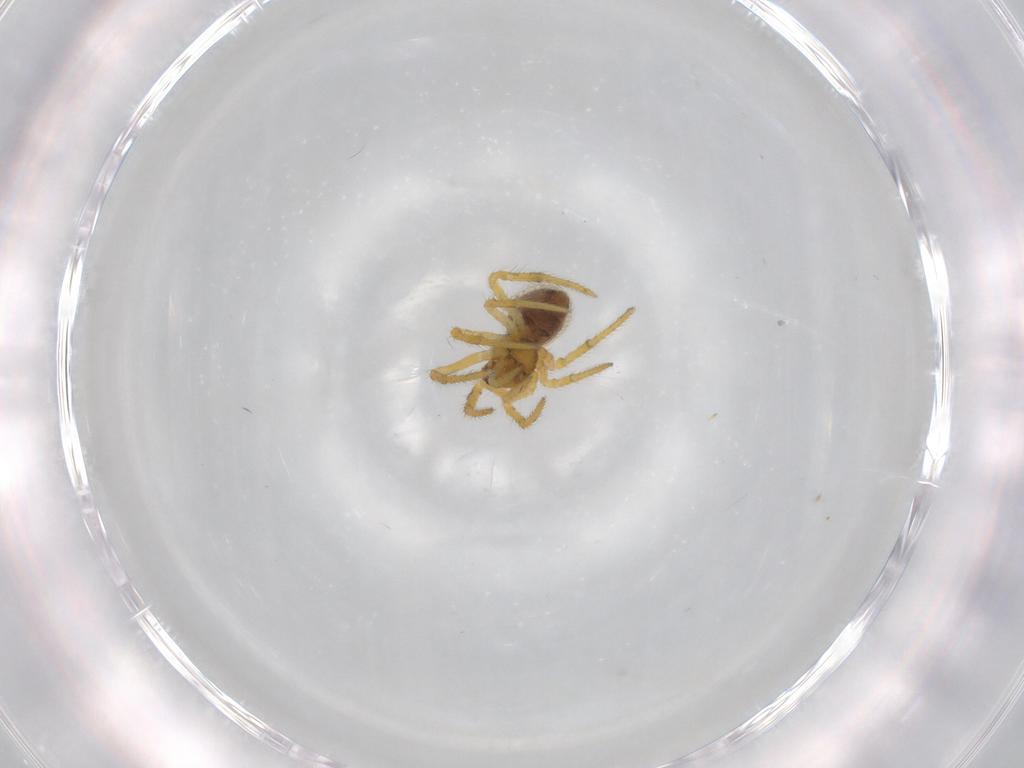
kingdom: Animalia
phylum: Arthropoda
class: Arachnida
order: Araneae
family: Theridiidae
